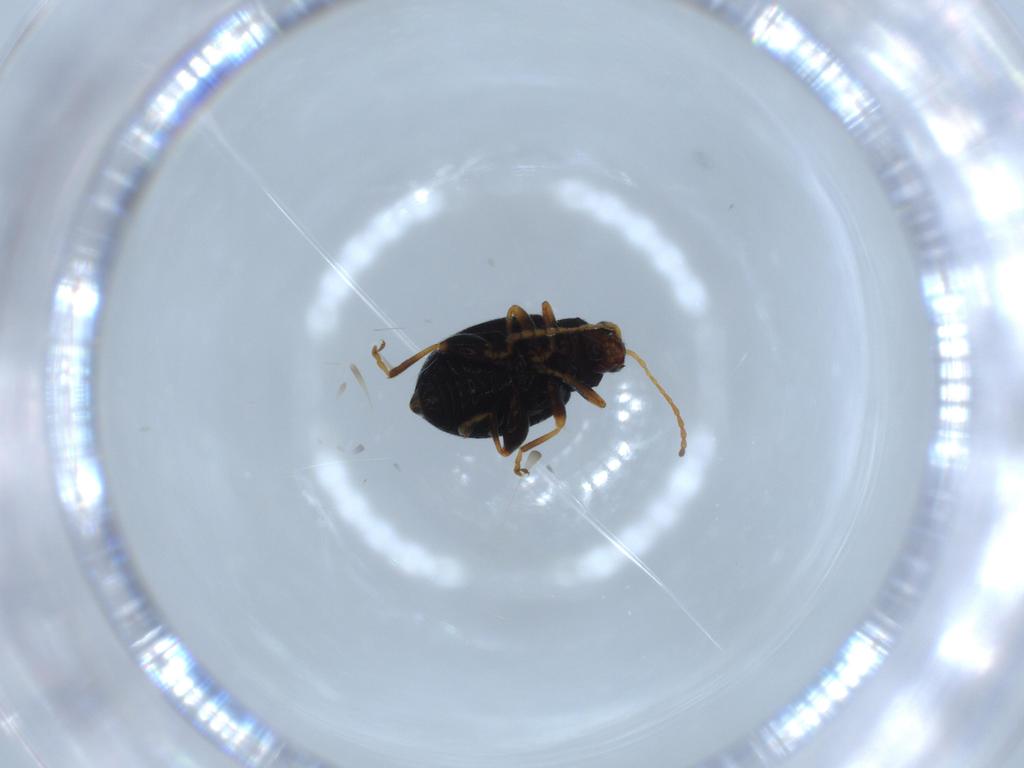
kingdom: Animalia
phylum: Arthropoda
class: Insecta
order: Coleoptera
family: Chrysomelidae
